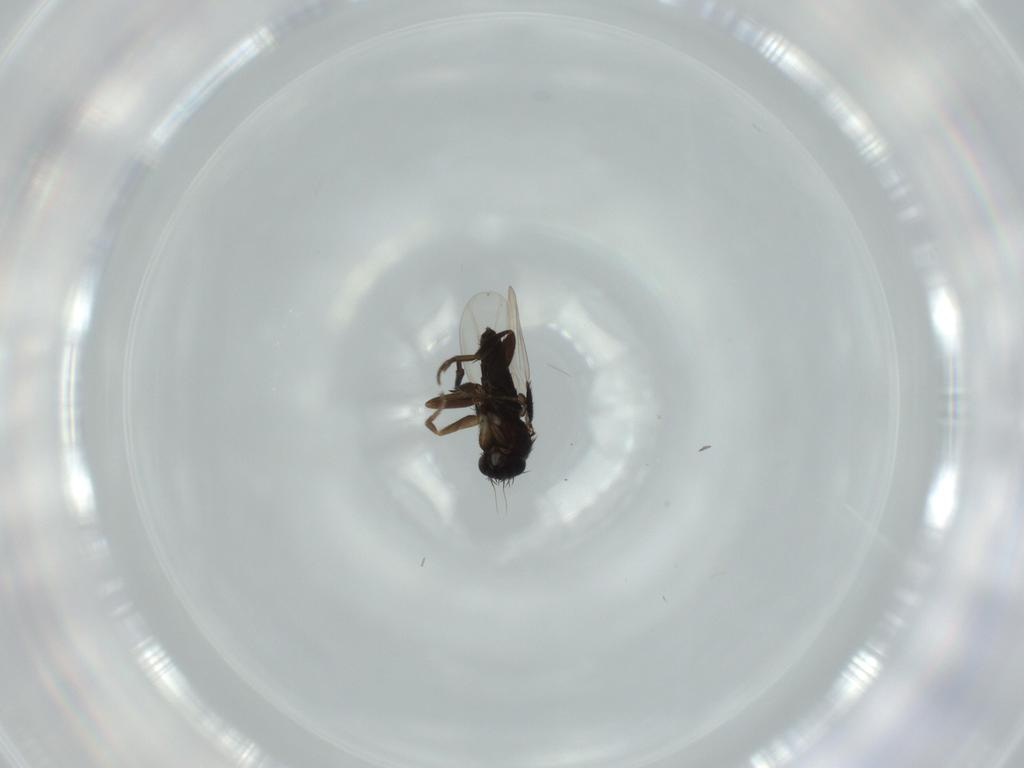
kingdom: Animalia
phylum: Arthropoda
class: Insecta
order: Diptera
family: Phoridae
